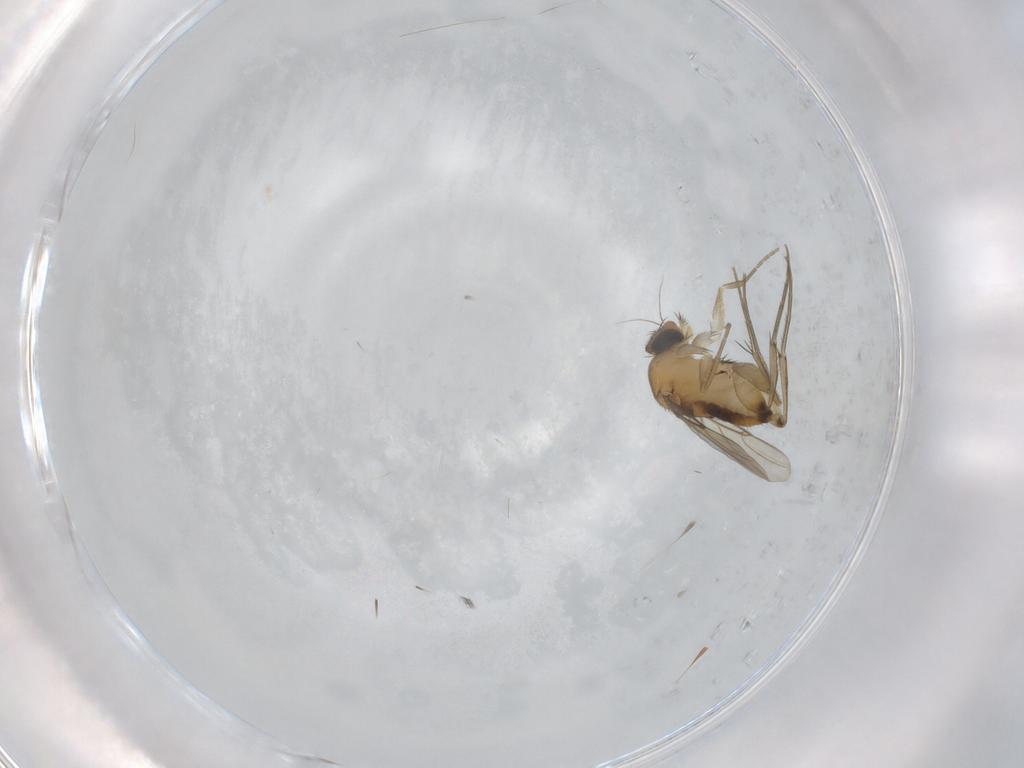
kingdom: Animalia
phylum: Arthropoda
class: Insecta
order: Diptera
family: Phoridae
